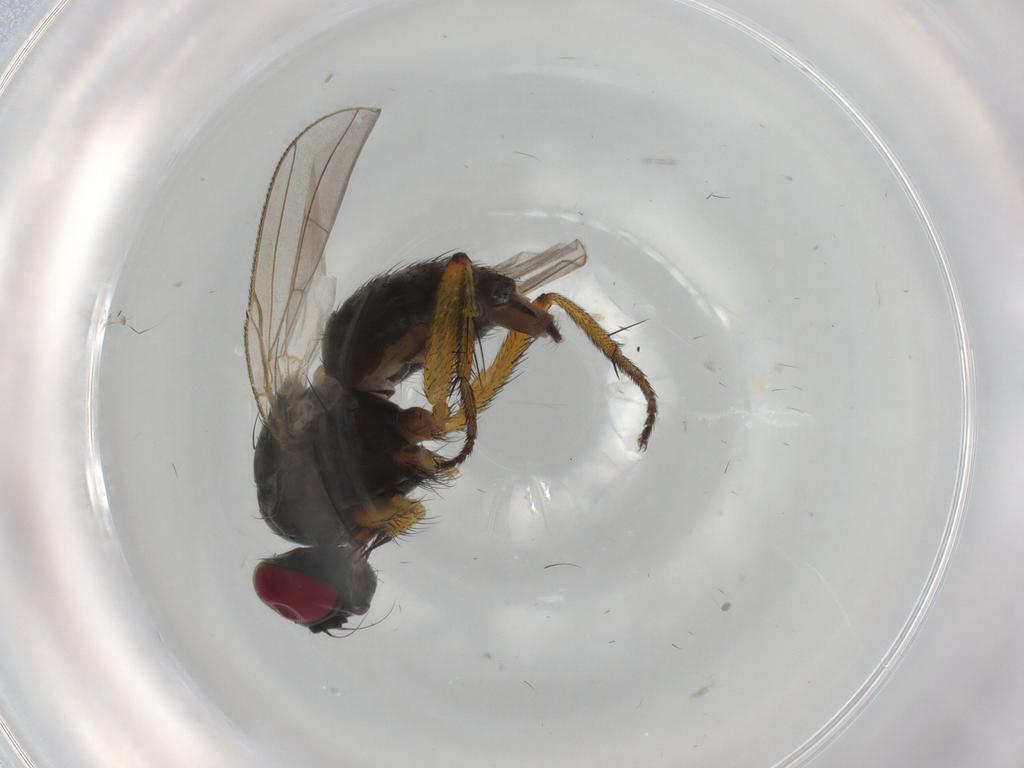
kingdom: Animalia
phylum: Arthropoda
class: Insecta
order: Diptera
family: Muscidae
